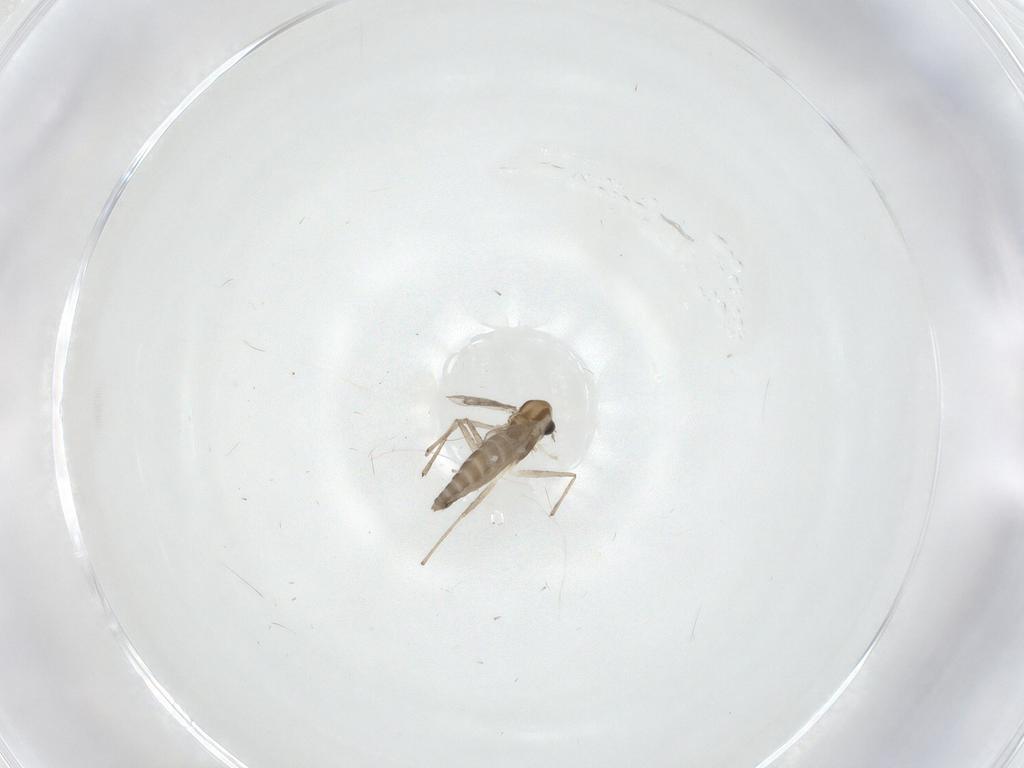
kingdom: Animalia
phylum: Arthropoda
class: Insecta
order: Diptera
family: Chironomidae
